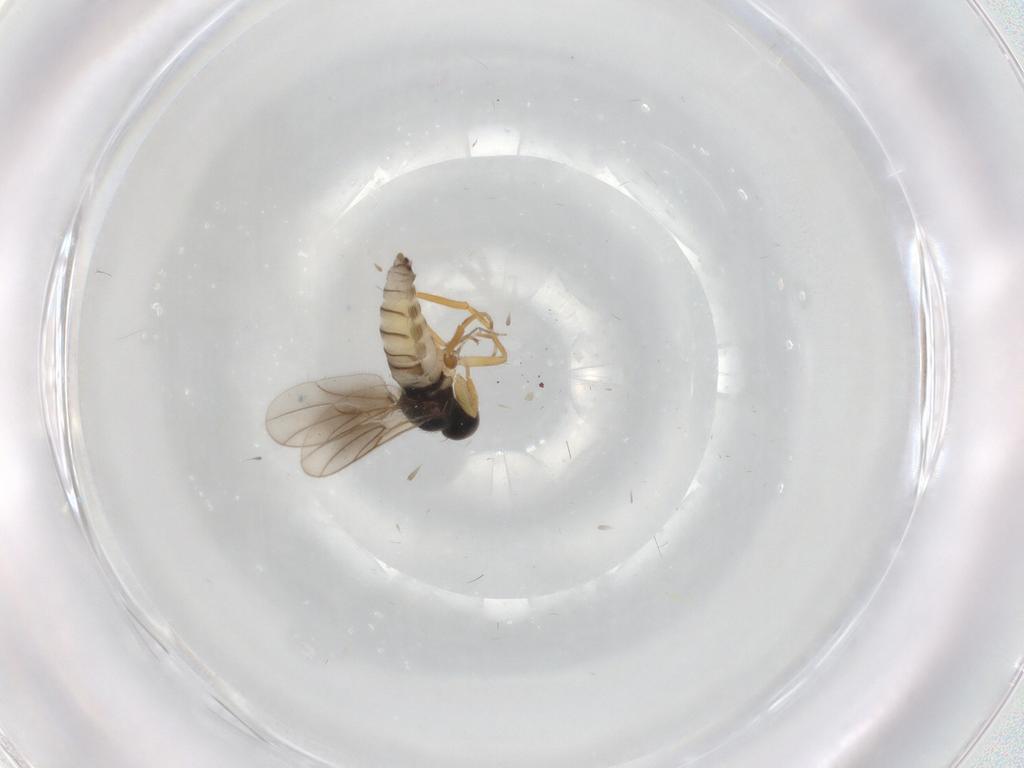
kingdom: Animalia
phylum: Arthropoda
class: Insecta
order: Diptera
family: Hybotidae
